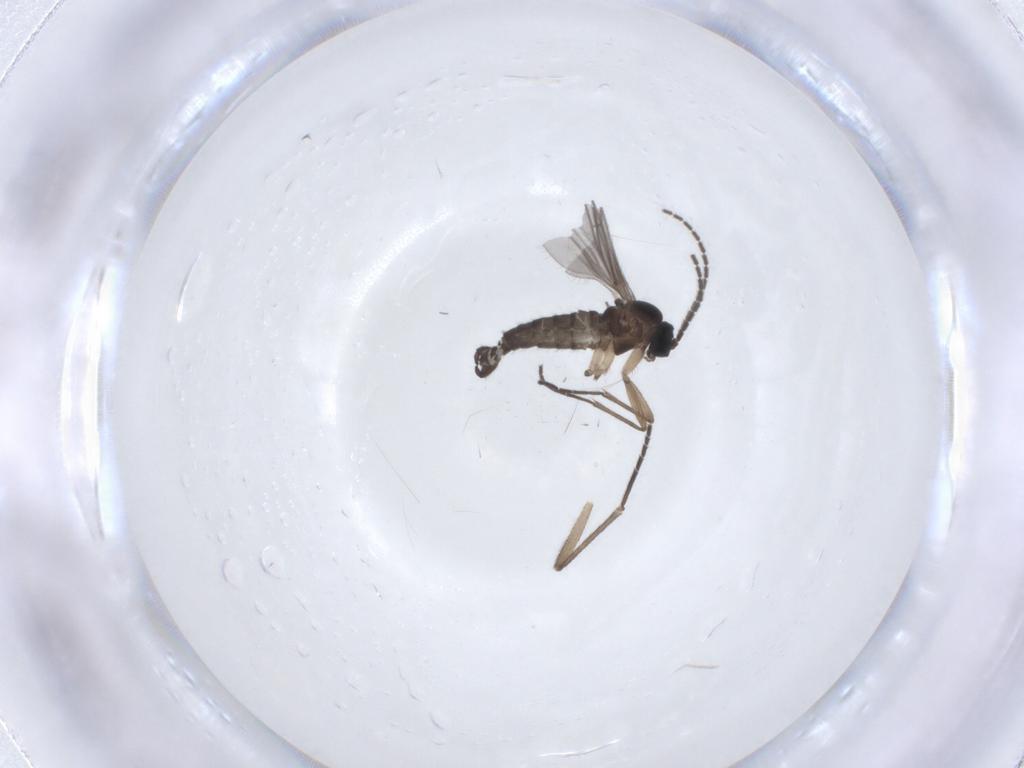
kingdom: Animalia
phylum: Arthropoda
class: Insecta
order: Diptera
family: Sciaridae
